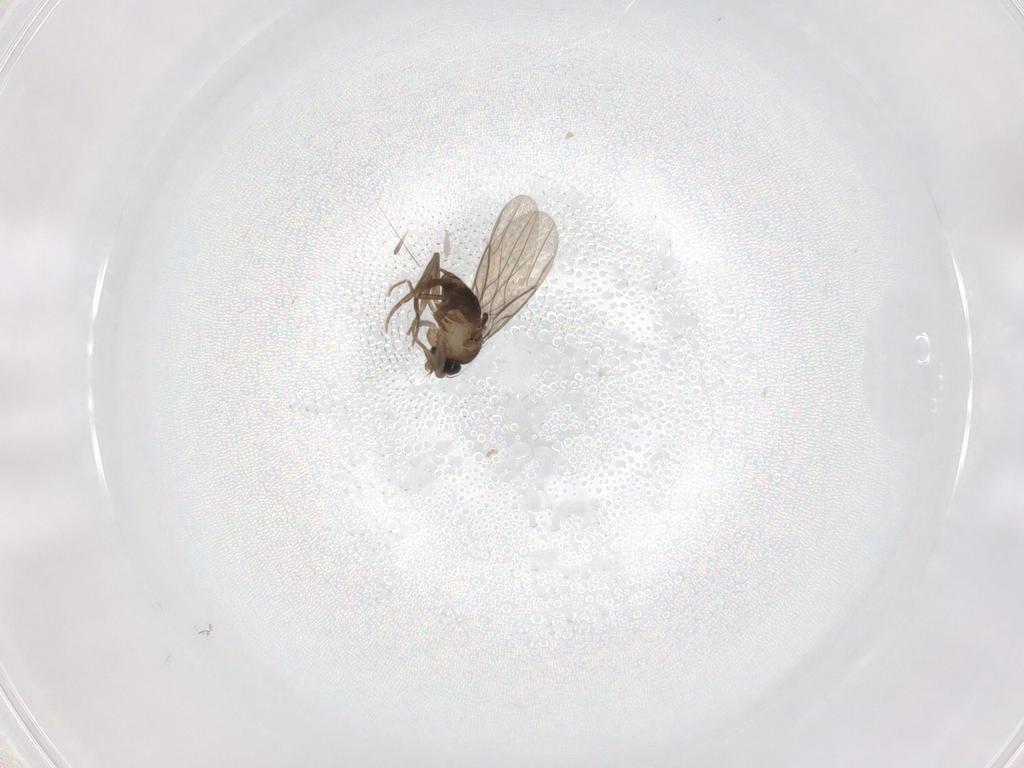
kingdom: Animalia
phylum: Arthropoda
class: Insecta
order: Diptera
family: Phoridae
